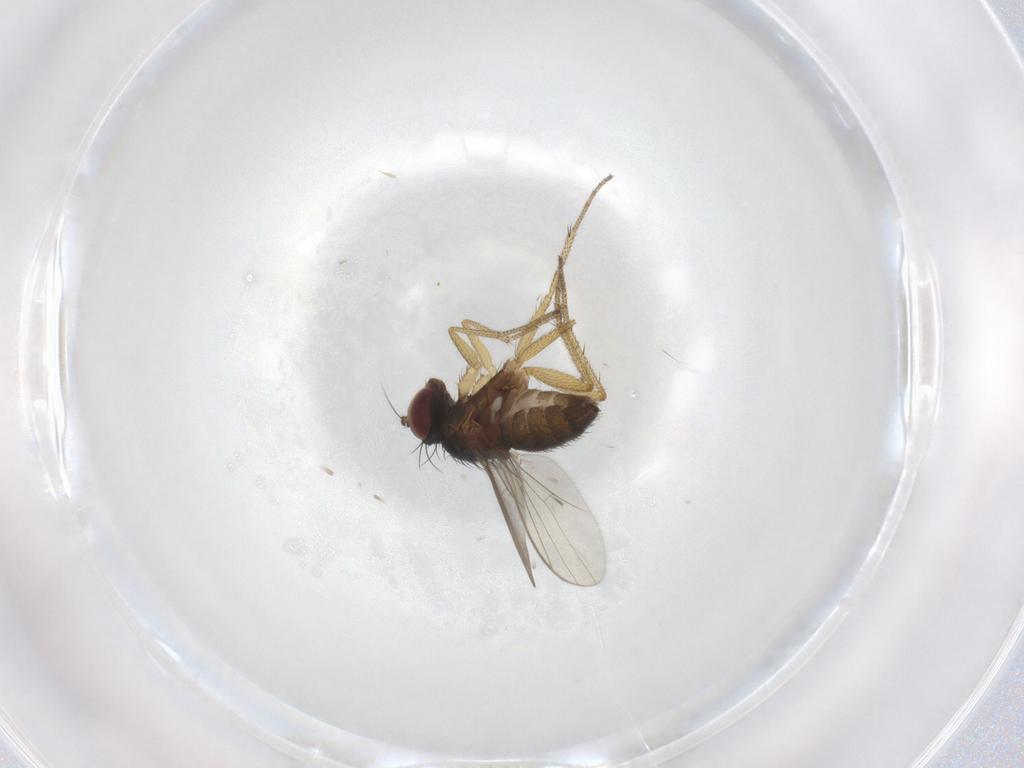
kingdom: Animalia
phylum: Arthropoda
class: Insecta
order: Diptera
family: Dolichopodidae
